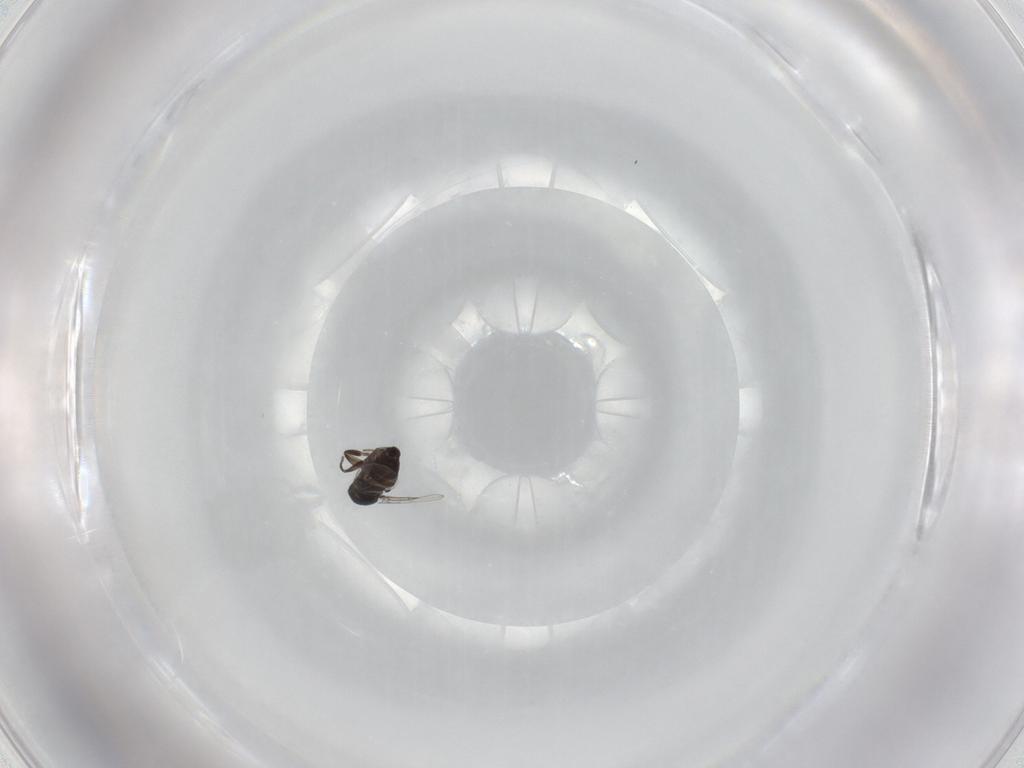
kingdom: Animalia
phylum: Arthropoda
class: Insecta
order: Diptera
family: Phoridae
